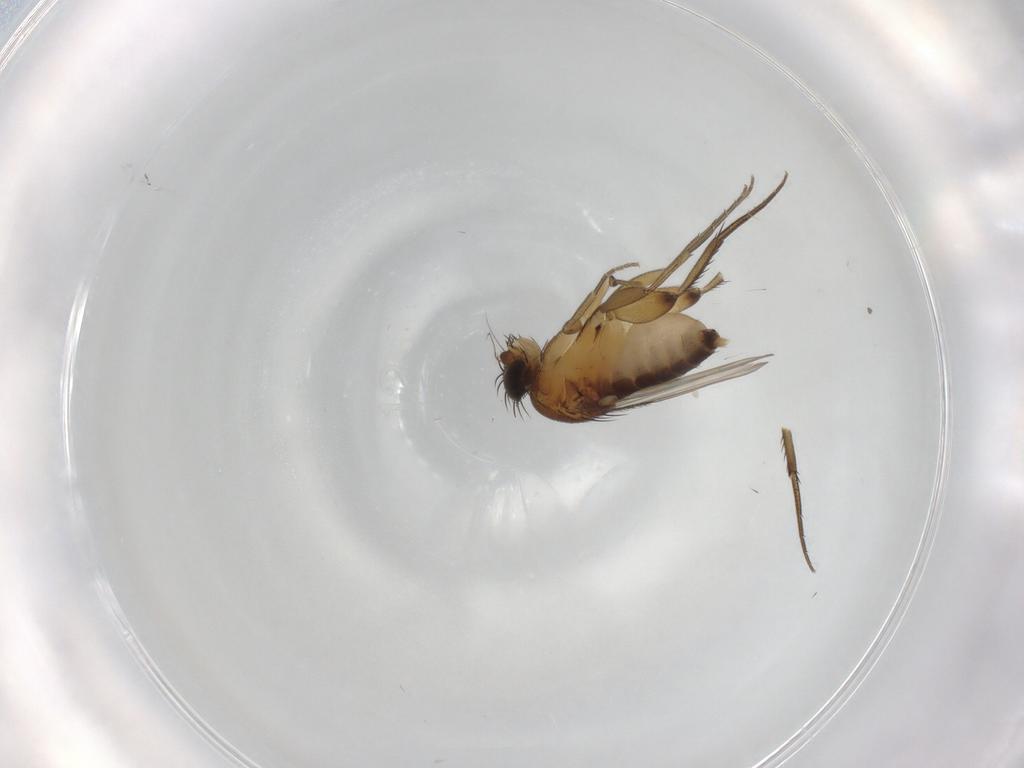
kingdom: Animalia
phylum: Arthropoda
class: Insecta
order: Diptera
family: Phoridae
